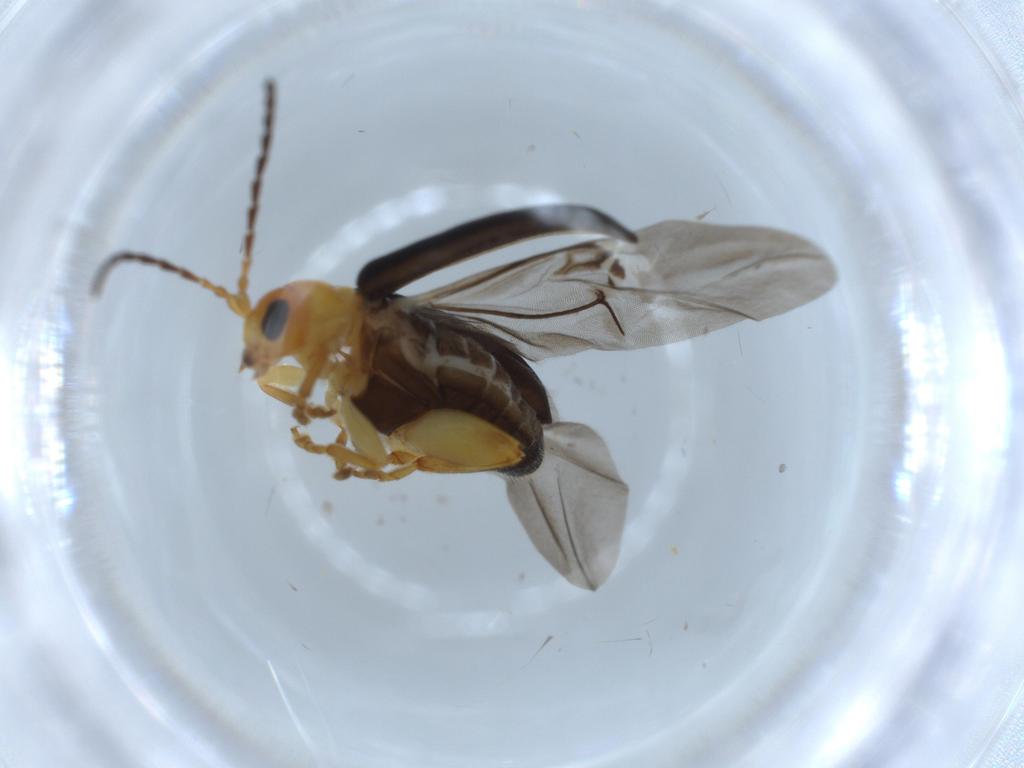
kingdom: Animalia
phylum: Arthropoda
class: Insecta
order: Coleoptera
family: Chrysomelidae
